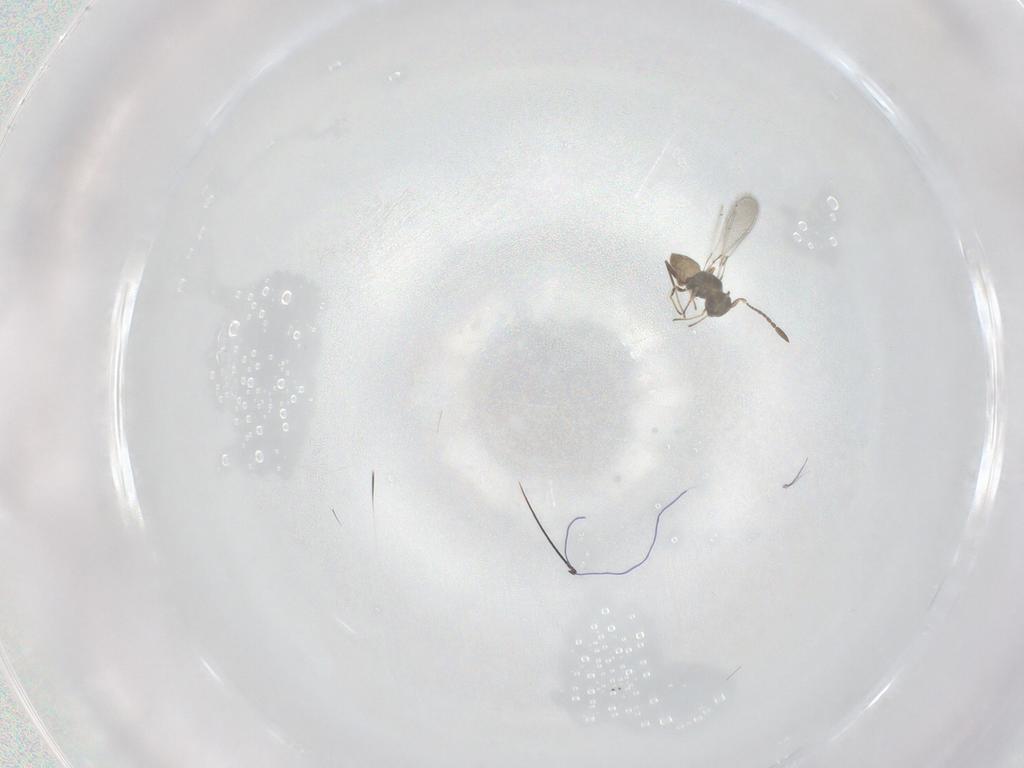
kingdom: Animalia
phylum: Arthropoda
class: Insecta
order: Hymenoptera
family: Mymaridae
